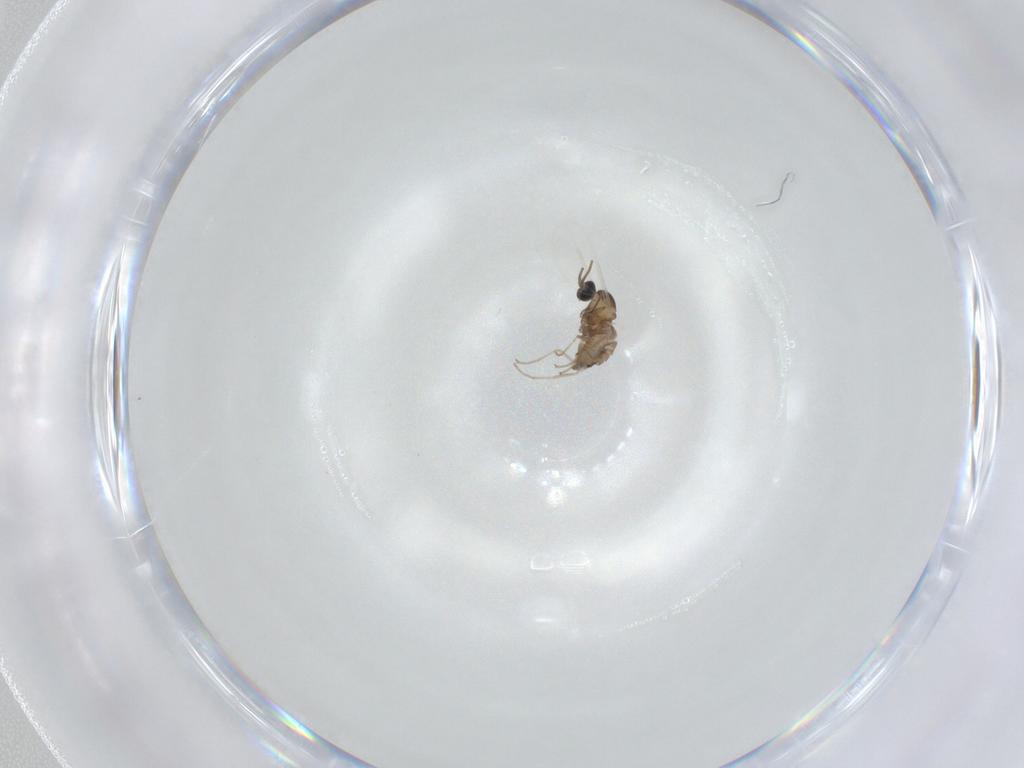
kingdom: Animalia
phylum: Arthropoda
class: Insecta
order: Diptera
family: Cecidomyiidae
